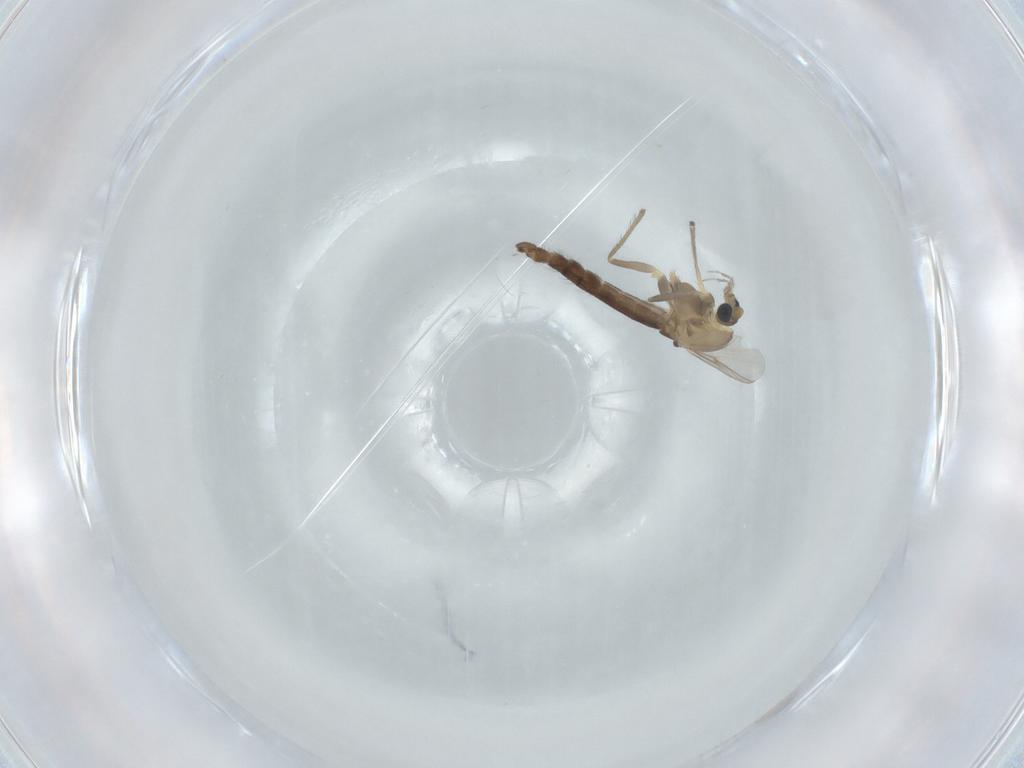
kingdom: Animalia
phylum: Arthropoda
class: Insecta
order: Diptera
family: Chironomidae
